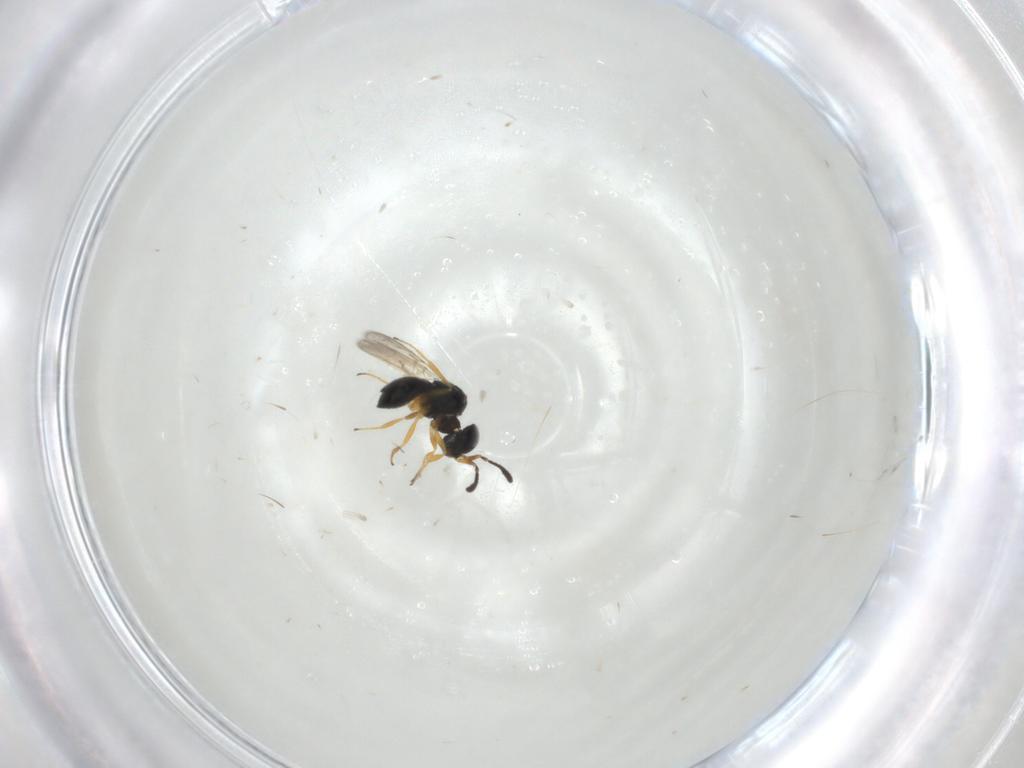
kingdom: Animalia
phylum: Arthropoda
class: Insecta
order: Hymenoptera
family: Scelionidae
